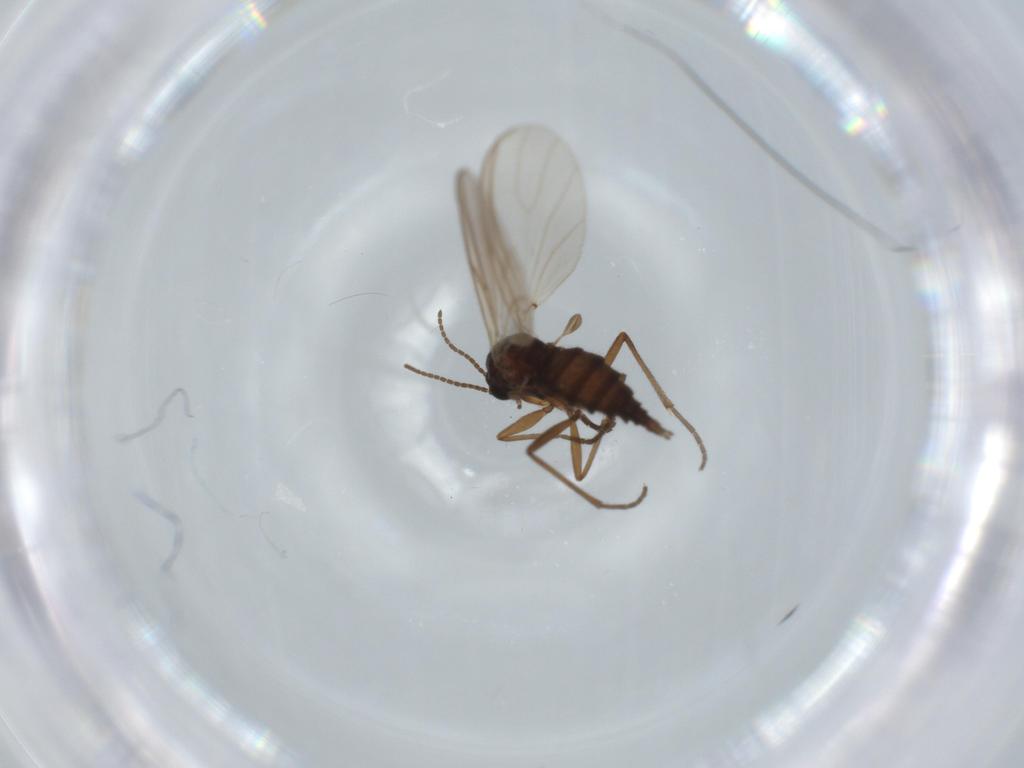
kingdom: Animalia
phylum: Arthropoda
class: Insecta
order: Diptera
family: Sciaridae
